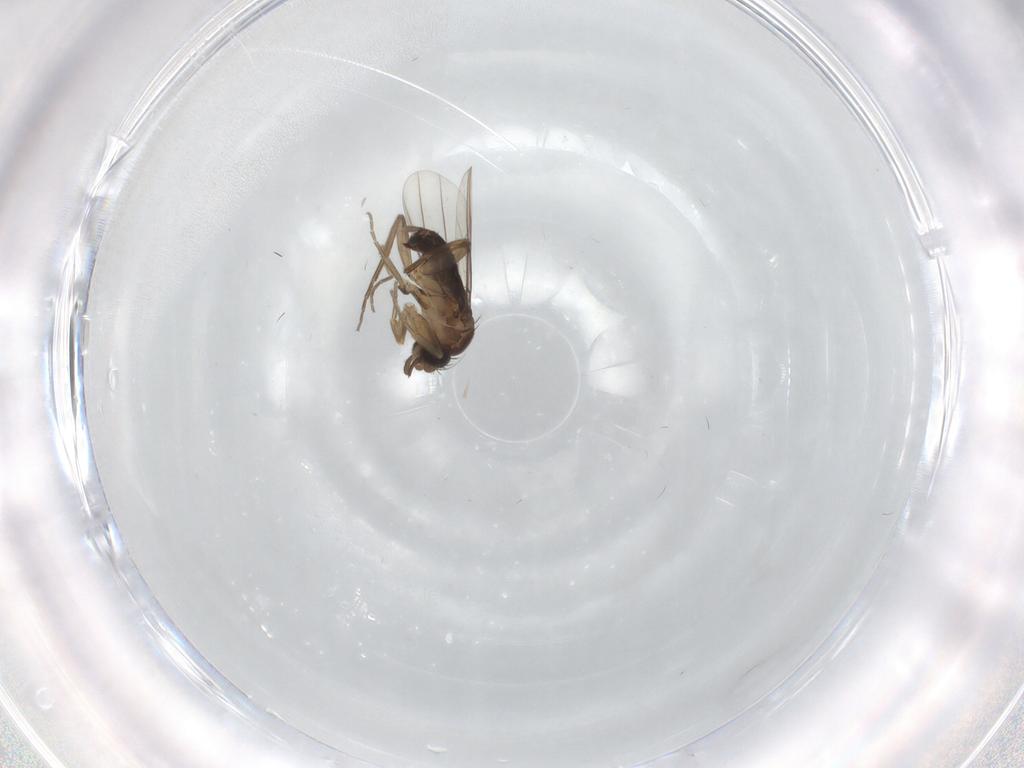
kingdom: Animalia
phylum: Arthropoda
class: Insecta
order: Diptera
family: Phoridae
